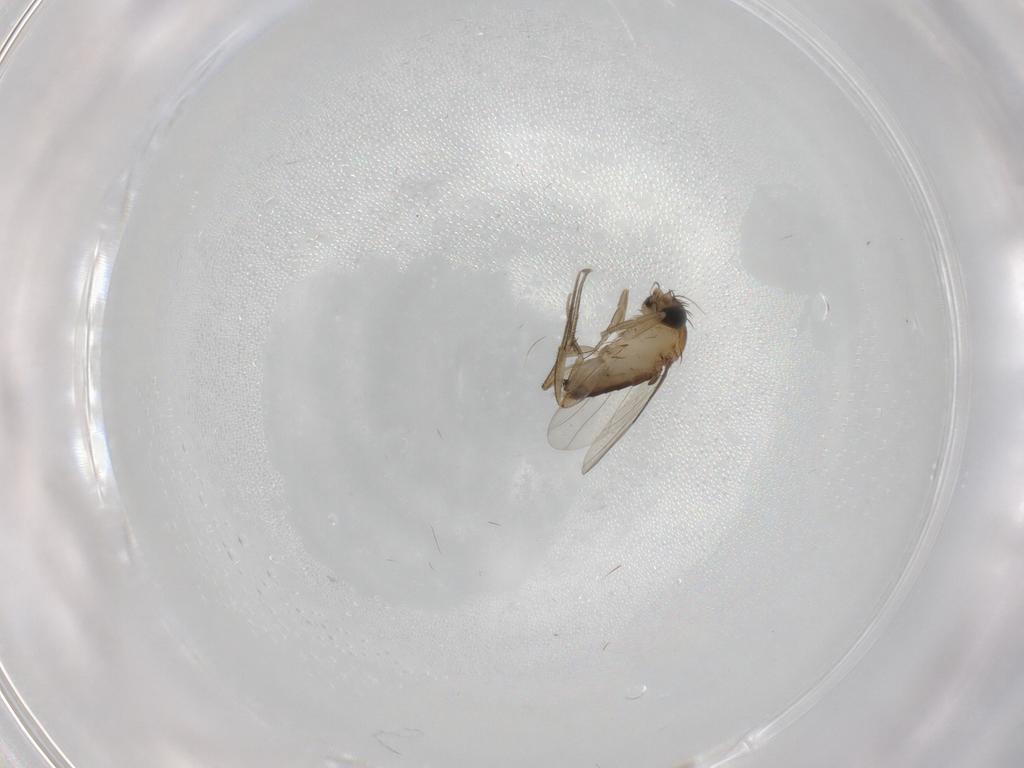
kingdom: Animalia
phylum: Arthropoda
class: Insecta
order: Diptera
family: Phoridae
